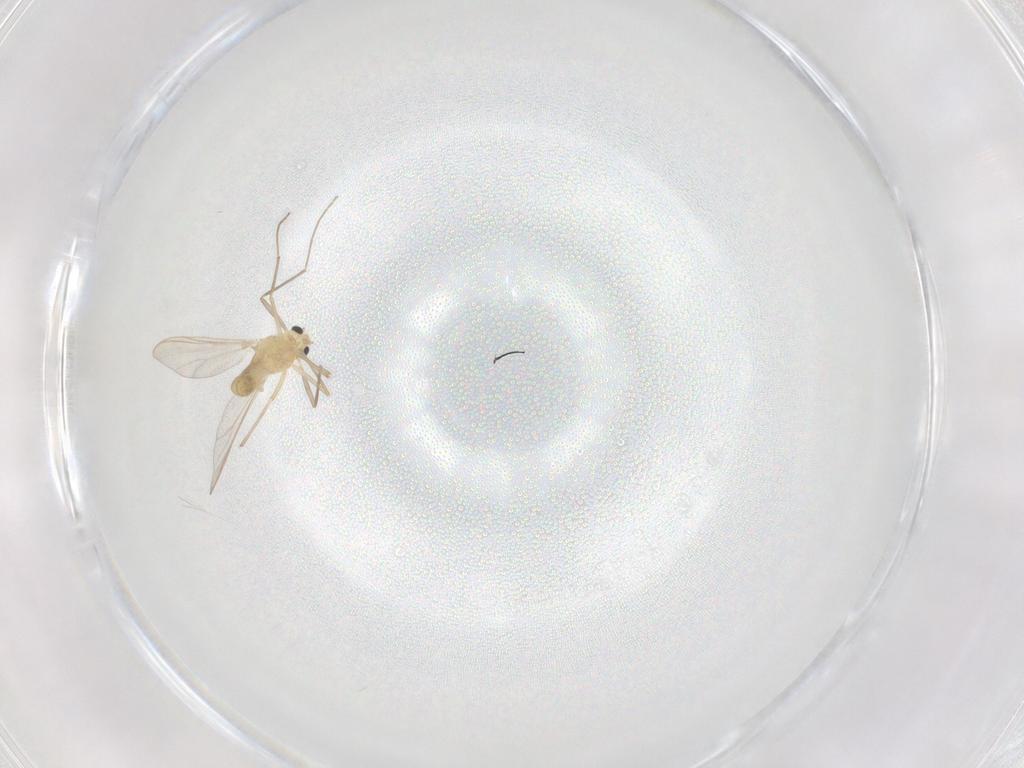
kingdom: Animalia
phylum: Arthropoda
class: Insecta
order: Diptera
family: Chironomidae
